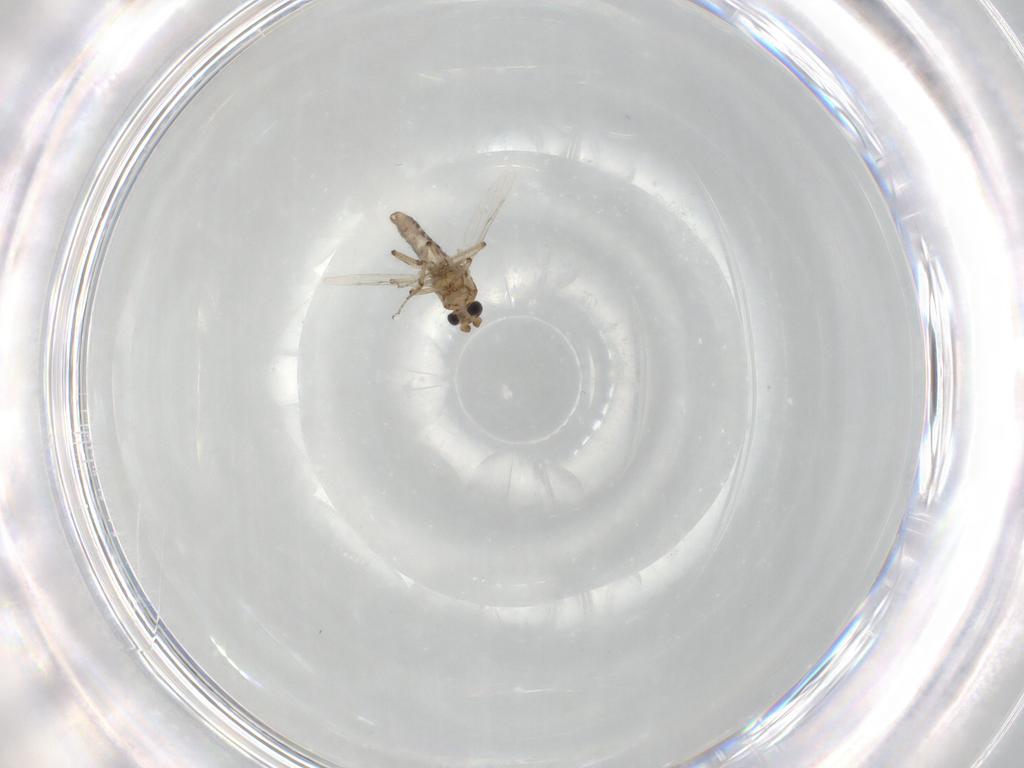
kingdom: Animalia
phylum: Arthropoda
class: Insecta
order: Diptera
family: Ceratopogonidae
